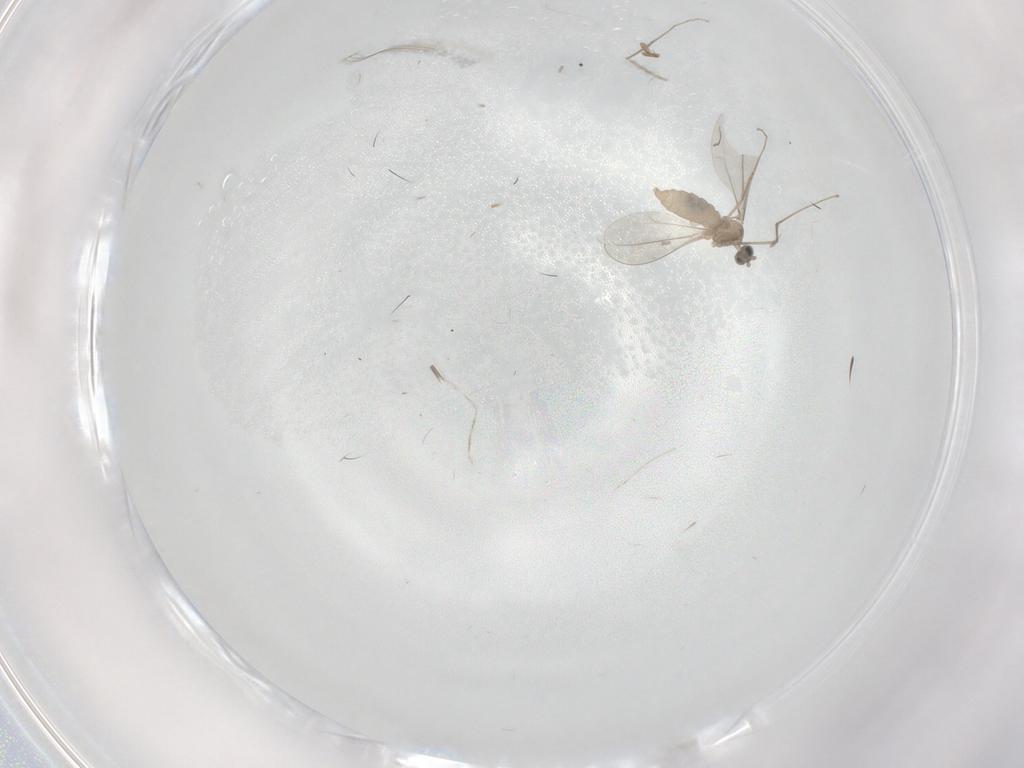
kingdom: Animalia
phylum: Arthropoda
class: Insecta
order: Diptera
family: Cecidomyiidae
